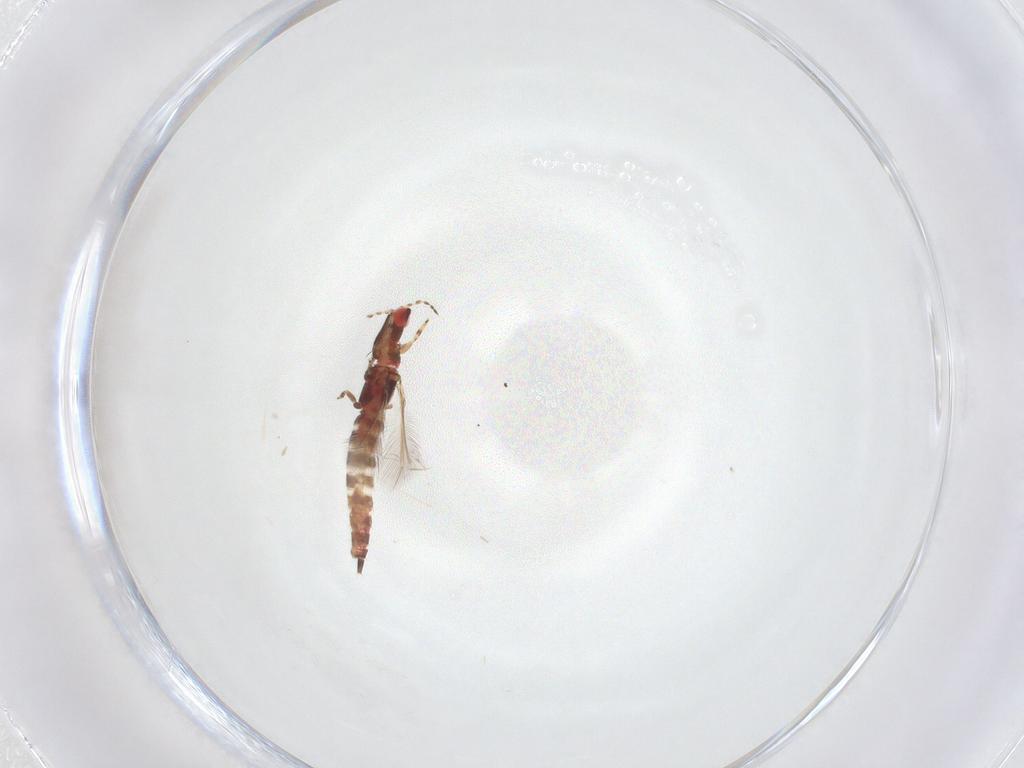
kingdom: Animalia
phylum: Arthropoda
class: Insecta
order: Thysanoptera
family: Phlaeothripidae
